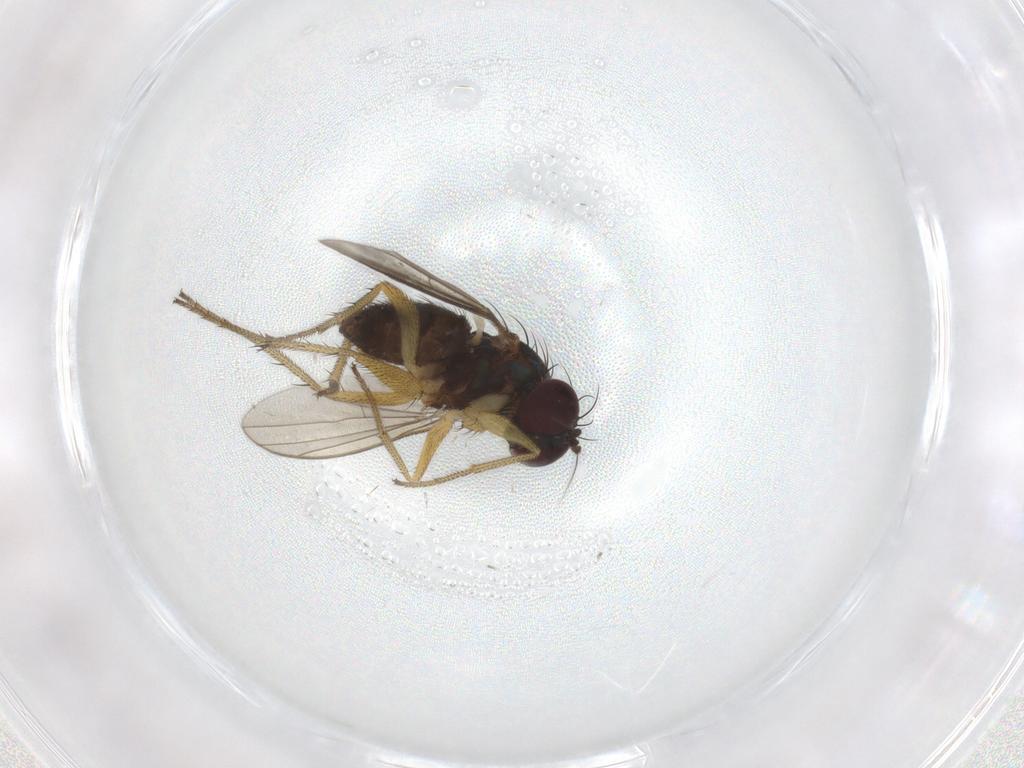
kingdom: Animalia
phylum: Arthropoda
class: Insecta
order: Diptera
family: Dolichopodidae
